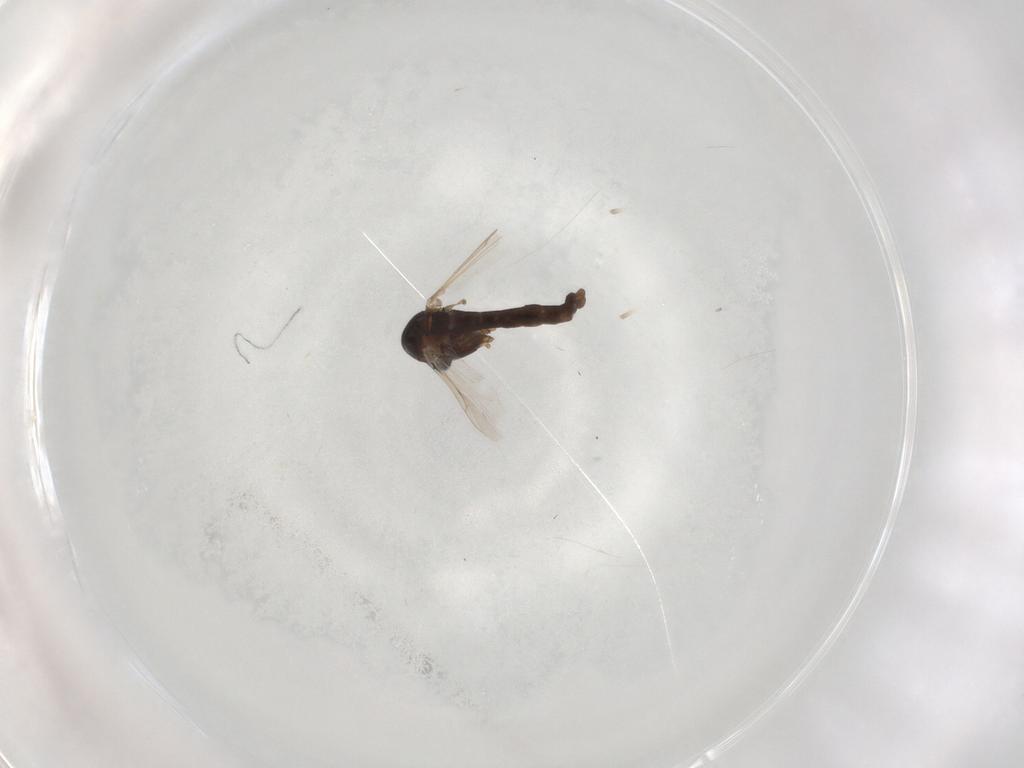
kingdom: Animalia
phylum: Arthropoda
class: Insecta
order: Diptera
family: Chironomidae
